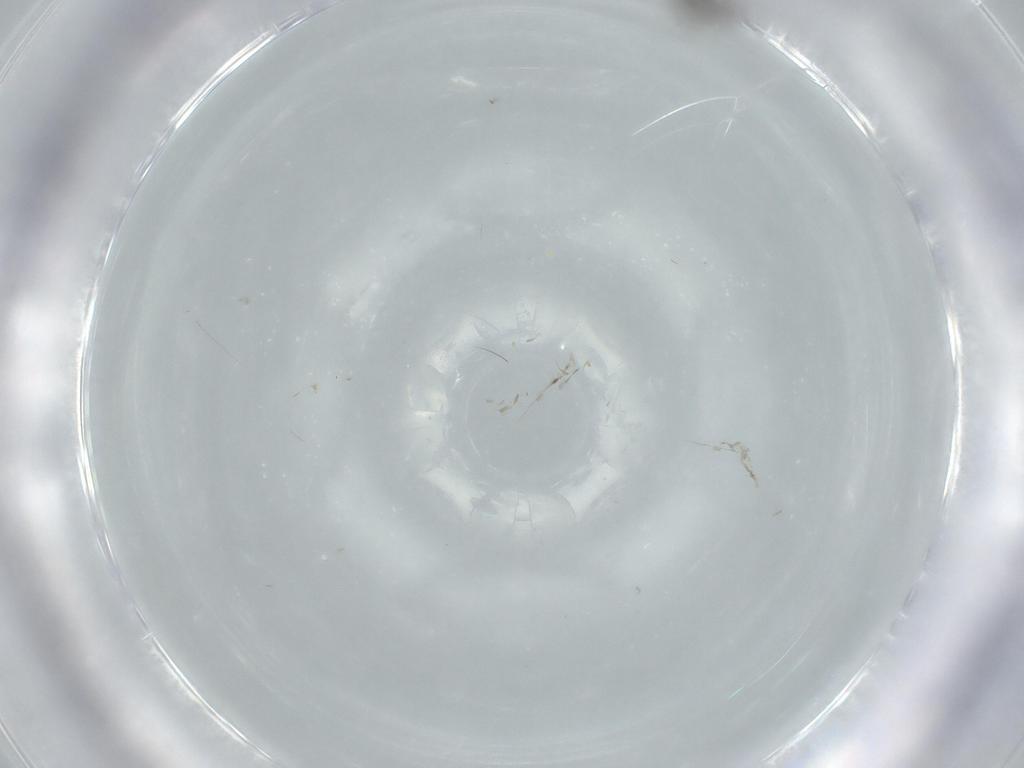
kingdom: Animalia
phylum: Arthropoda
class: Insecta
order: Diptera
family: Phoridae
